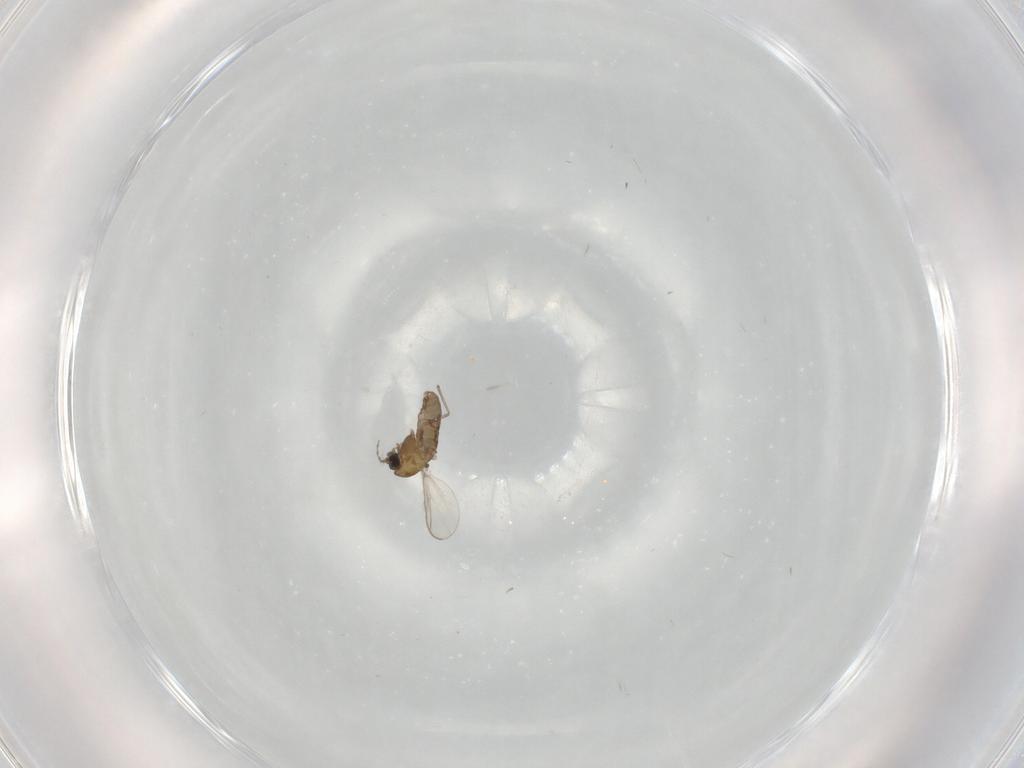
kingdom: Animalia
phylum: Arthropoda
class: Insecta
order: Diptera
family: Chironomidae
